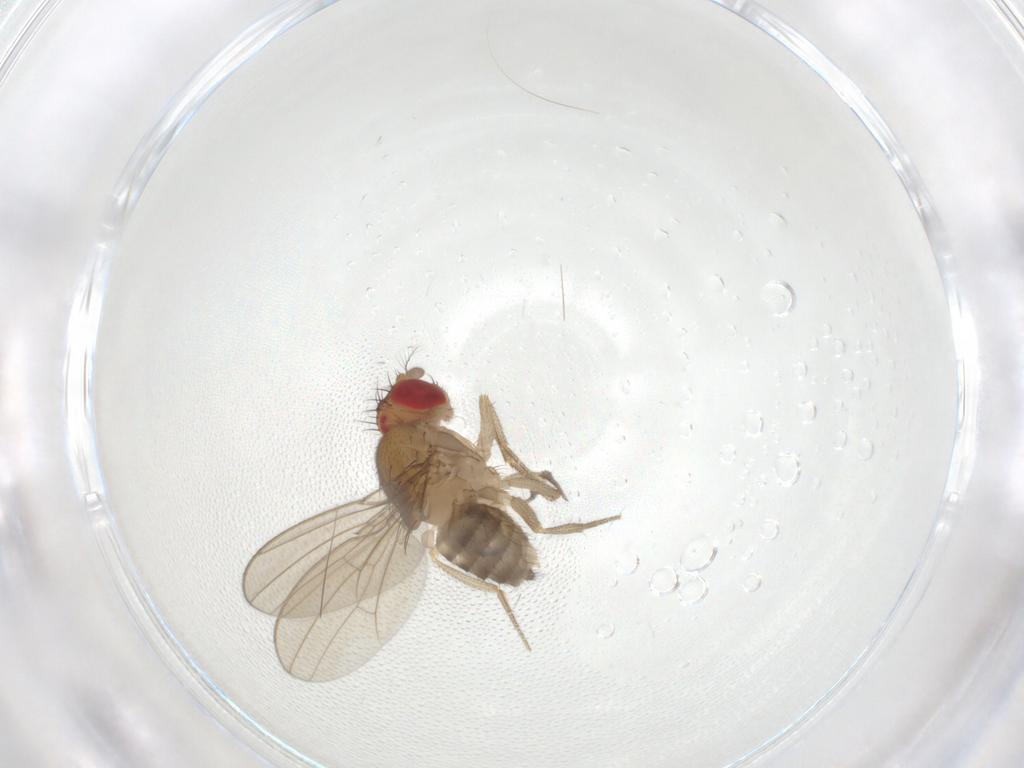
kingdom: Animalia
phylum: Arthropoda
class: Insecta
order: Diptera
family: Drosophilidae
